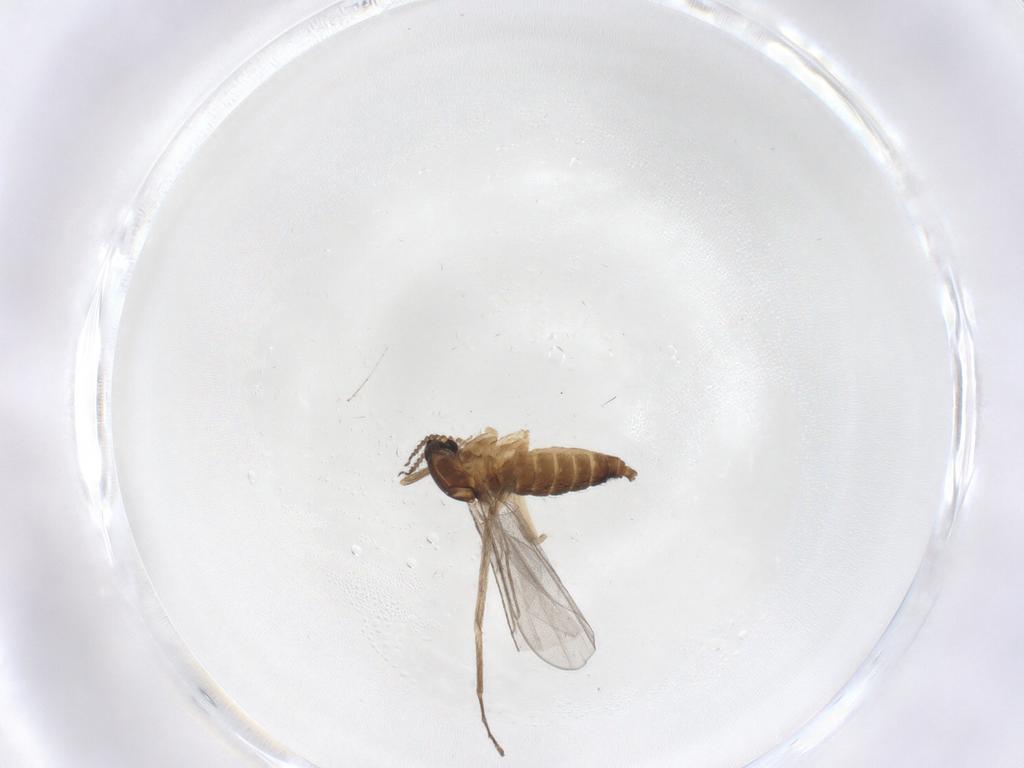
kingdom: Animalia
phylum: Arthropoda
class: Insecta
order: Diptera
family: Cecidomyiidae
